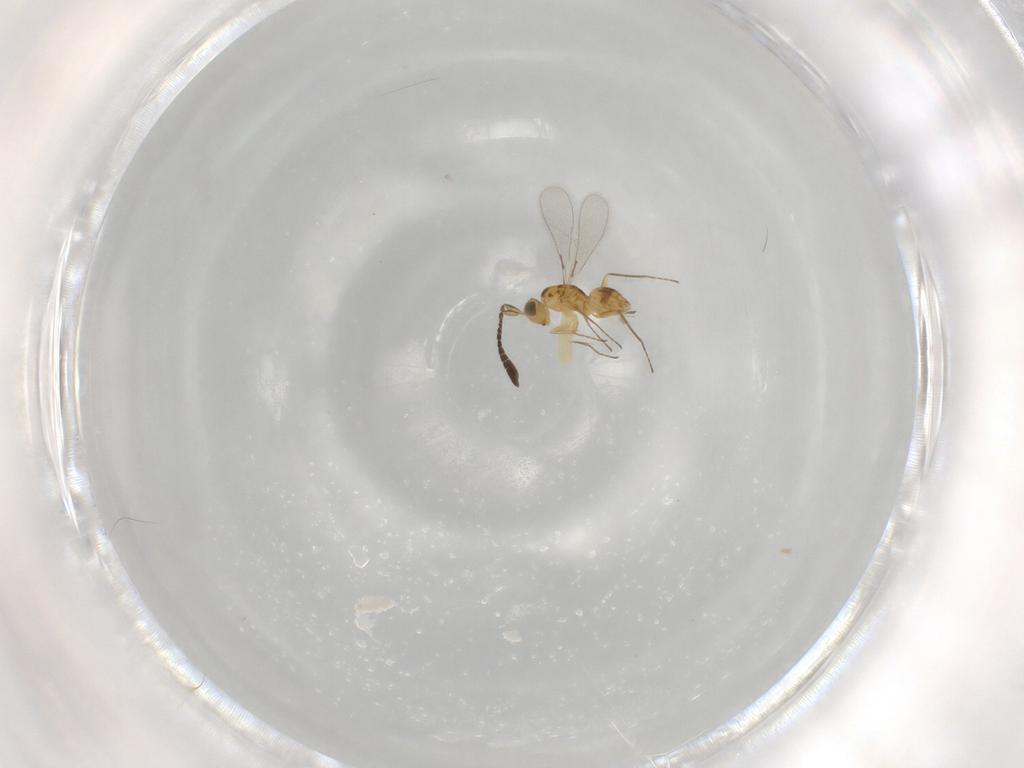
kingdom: Animalia
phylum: Arthropoda
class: Insecta
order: Hymenoptera
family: Mymaridae
